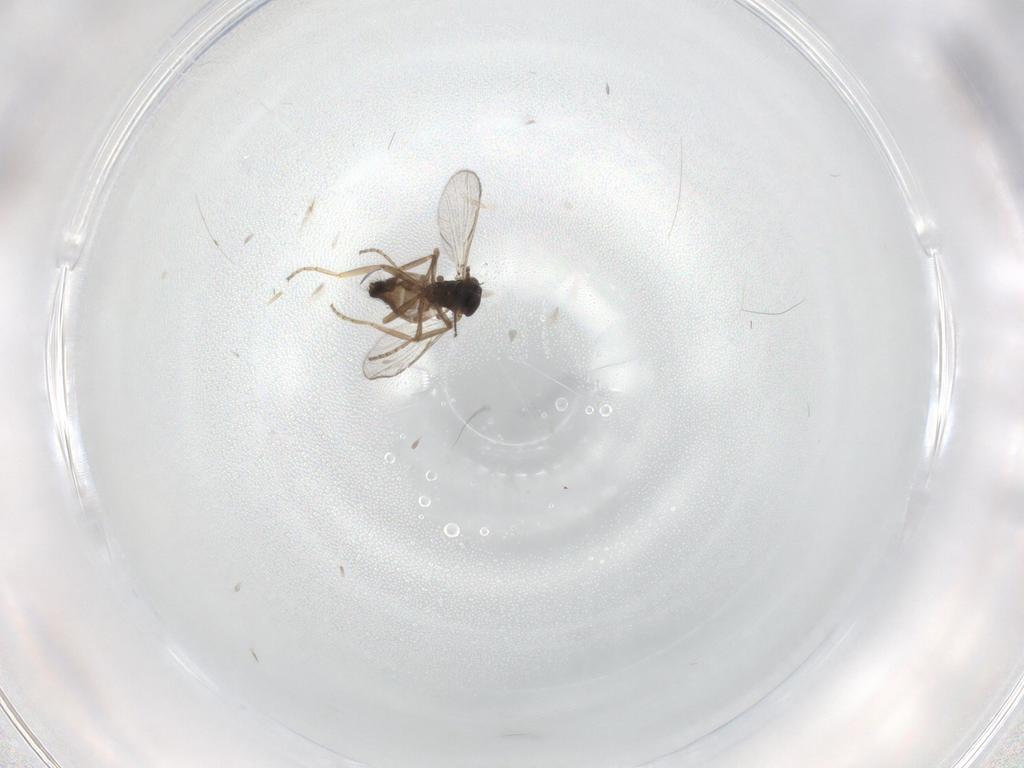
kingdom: Animalia
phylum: Arthropoda
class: Insecta
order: Diptera
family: Ceratopogonidae
